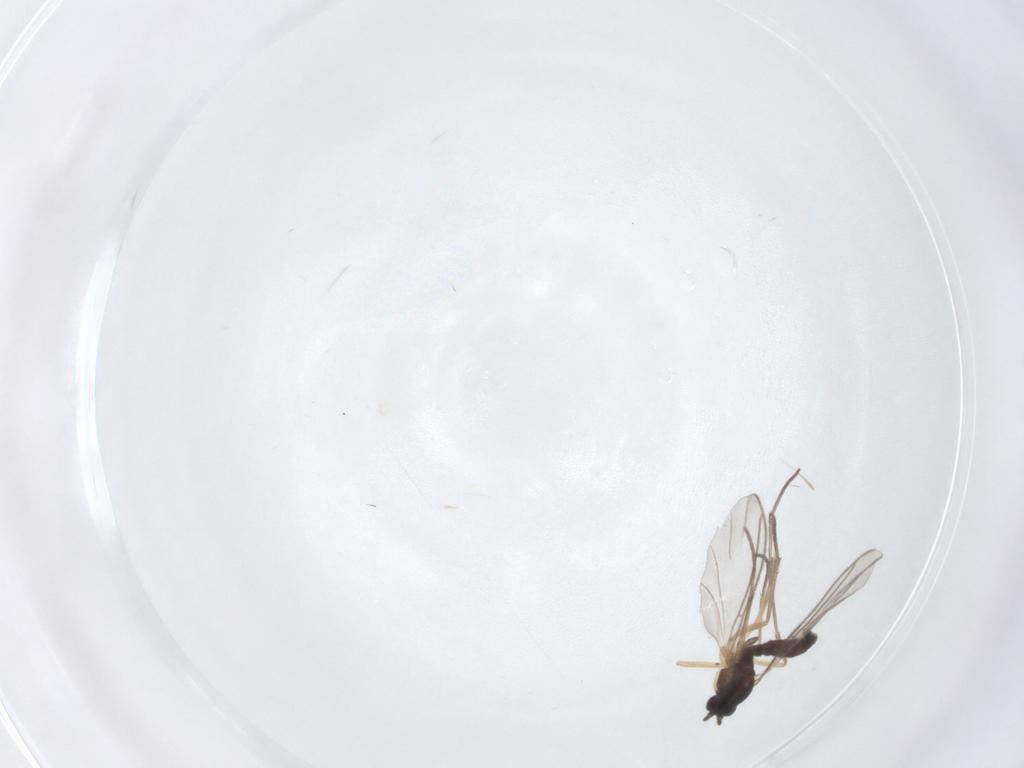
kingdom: Animalia
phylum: Arthropoda
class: Insecta
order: Diptera
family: Sciaridae
